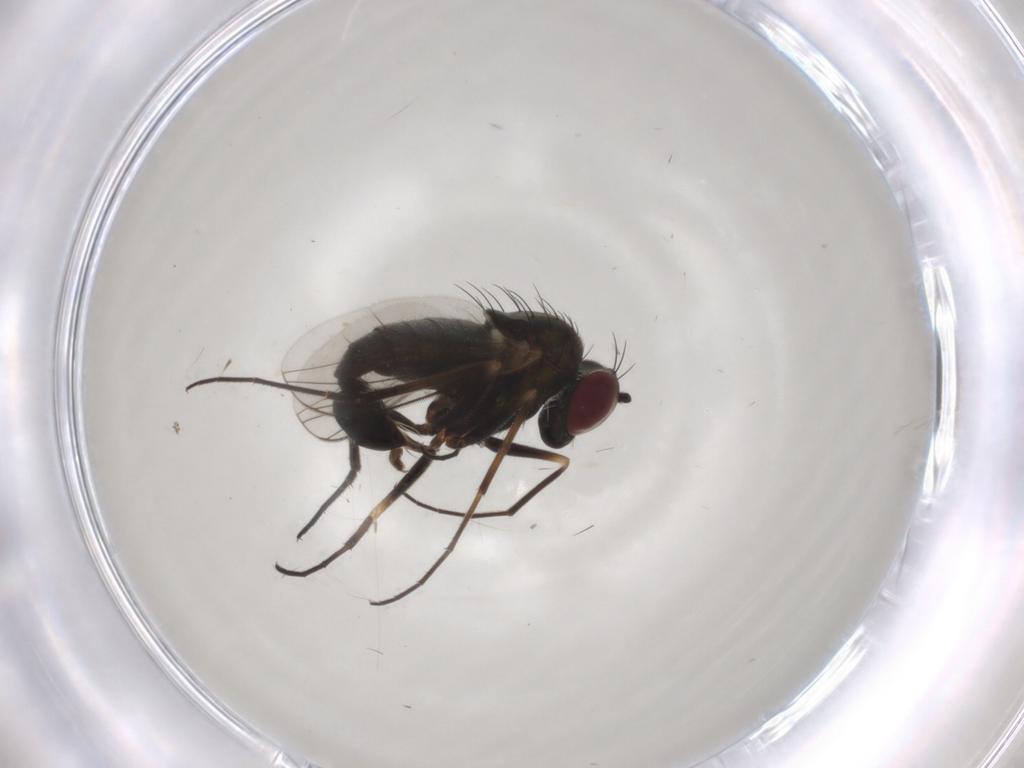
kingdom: Animalia
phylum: Arthropoda
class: Insecta
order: Diptera
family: Dolichopodidae
